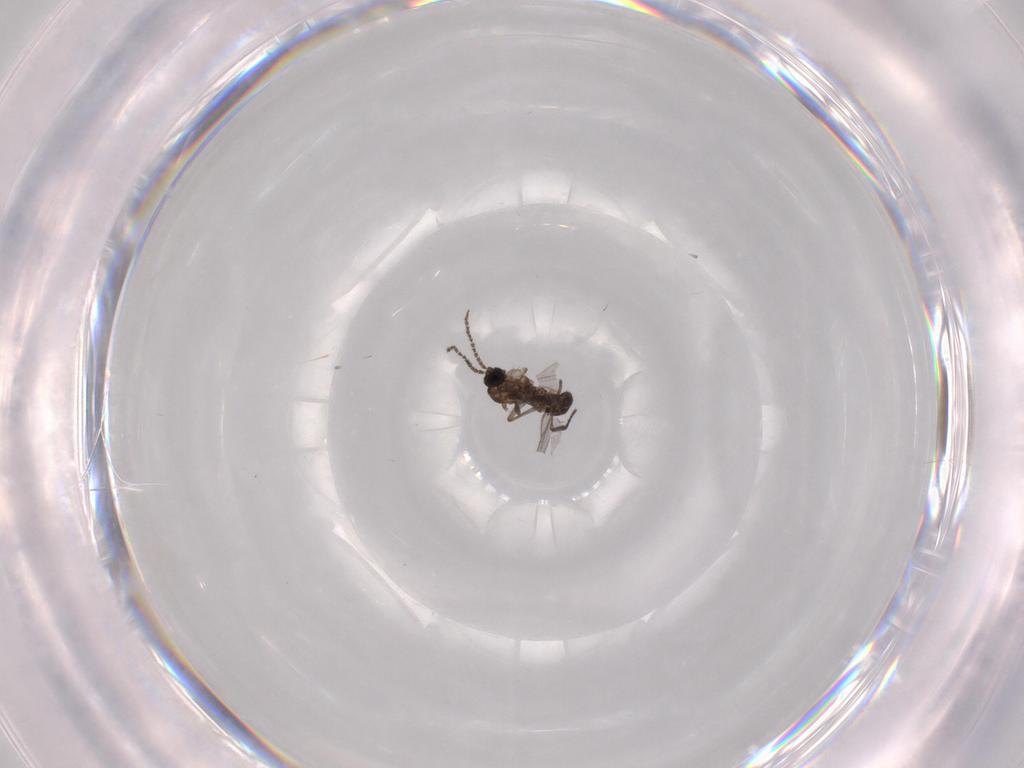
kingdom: Animalia
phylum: Arthropoda
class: Insecta
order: Diptera
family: Cecidomyiidae
